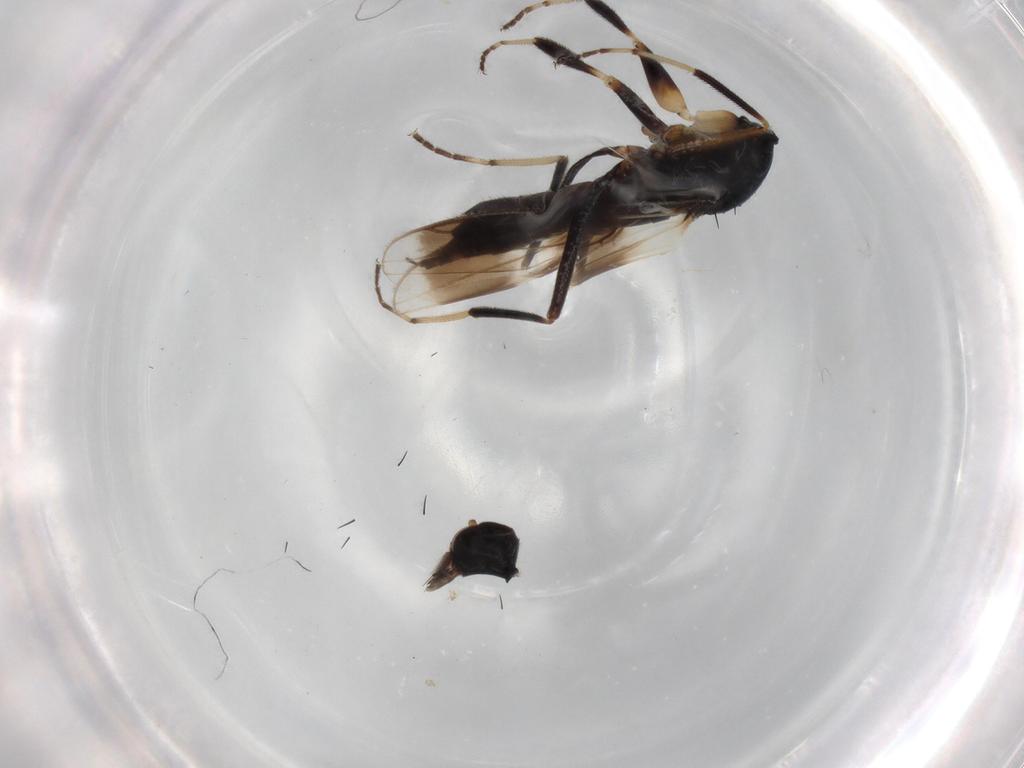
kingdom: Animalia
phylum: Arthropoda
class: Insecta
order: Diptera
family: Hybotidae
